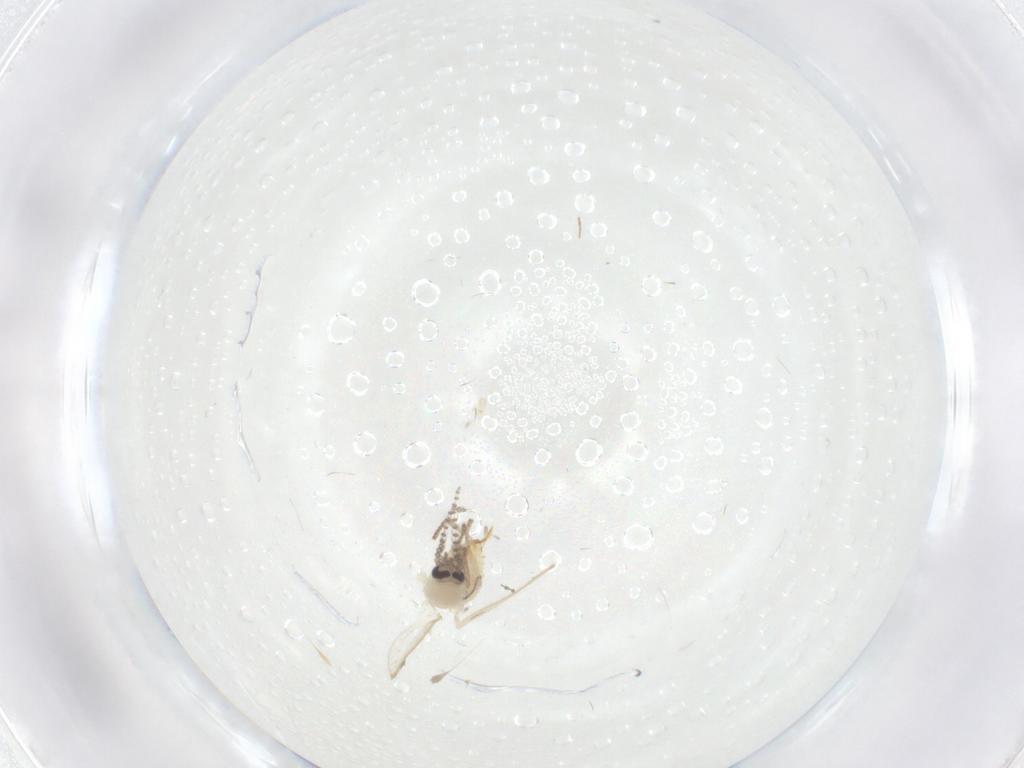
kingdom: Animalia
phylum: Arthropoda
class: Insecta
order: Diptera
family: Cecidomyiidae
